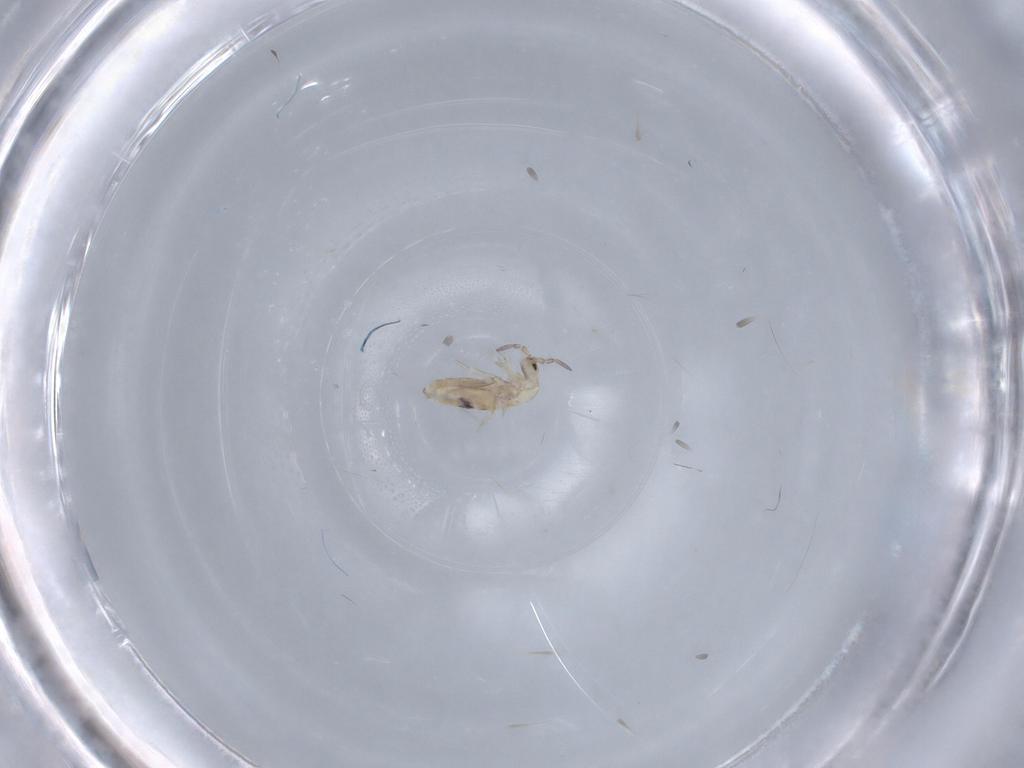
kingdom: Animalia
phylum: Arthropoda
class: Collembola
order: Entomobryomorpha
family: Entomobryidae
